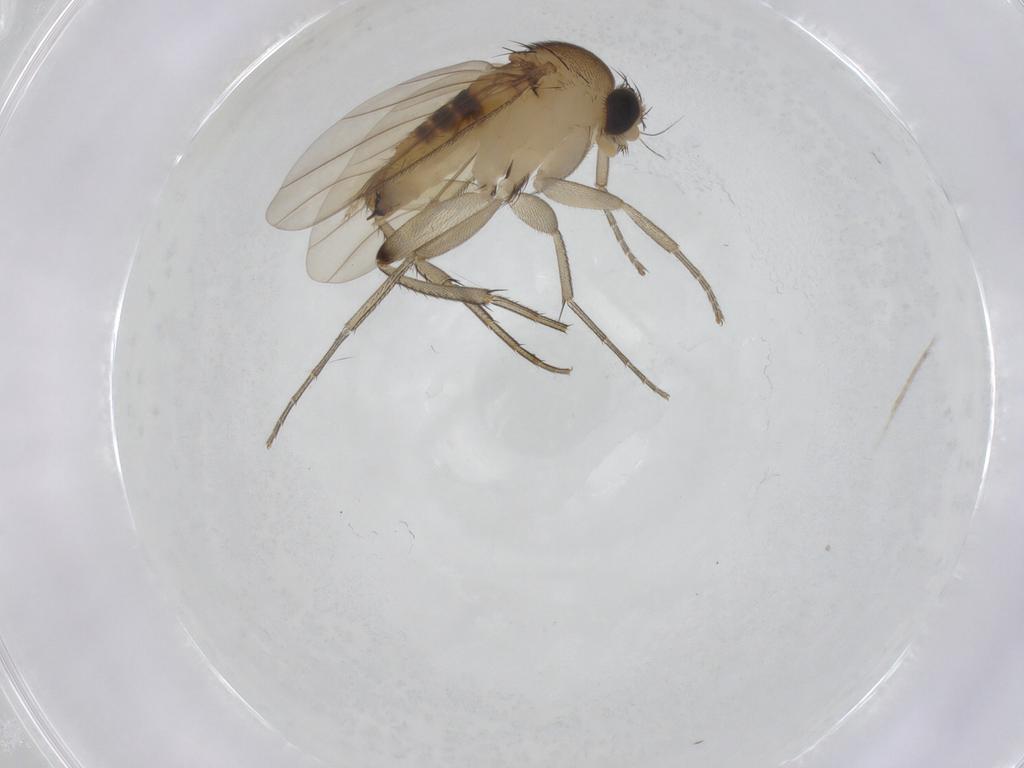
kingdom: Animalia
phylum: Arthropoda
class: Insecta
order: Diptera
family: Phoridae
